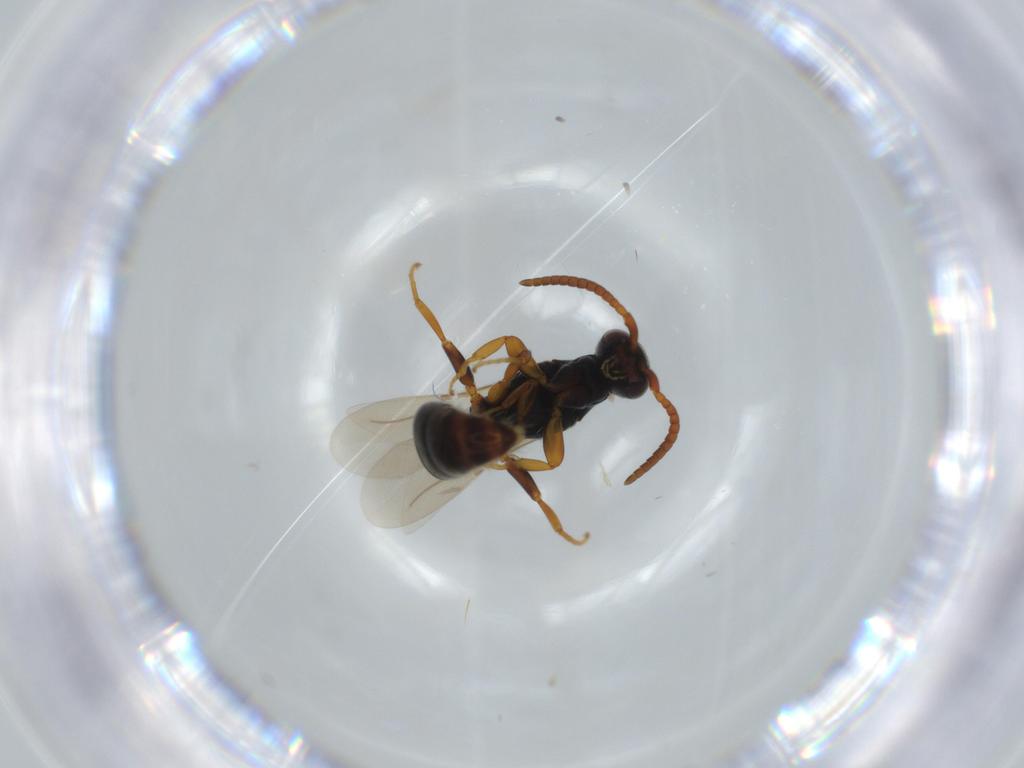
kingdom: Animalia
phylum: Arthropoda
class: Insecta
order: Hymenoptera
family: Bethylidae
